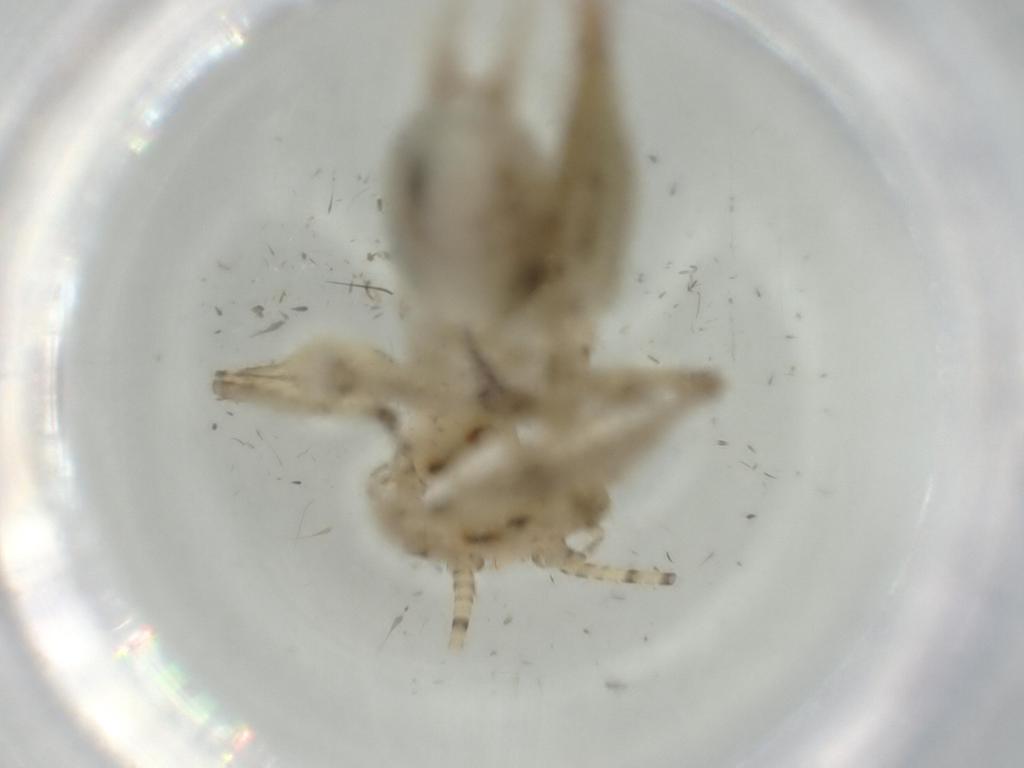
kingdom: Animalia
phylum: Arthropoda
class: Insecta
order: Orthoptera
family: Trigonidiidae
